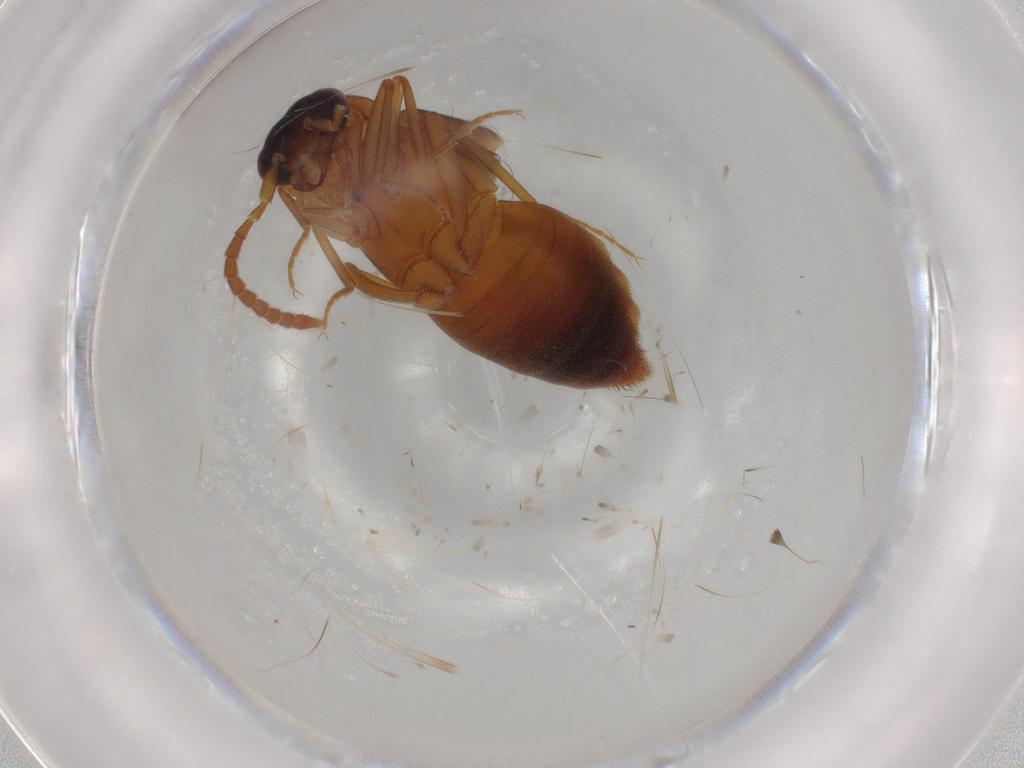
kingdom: Animalia
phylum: Arthropoda
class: Insecta
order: Coleoptera
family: Staphylinidae
